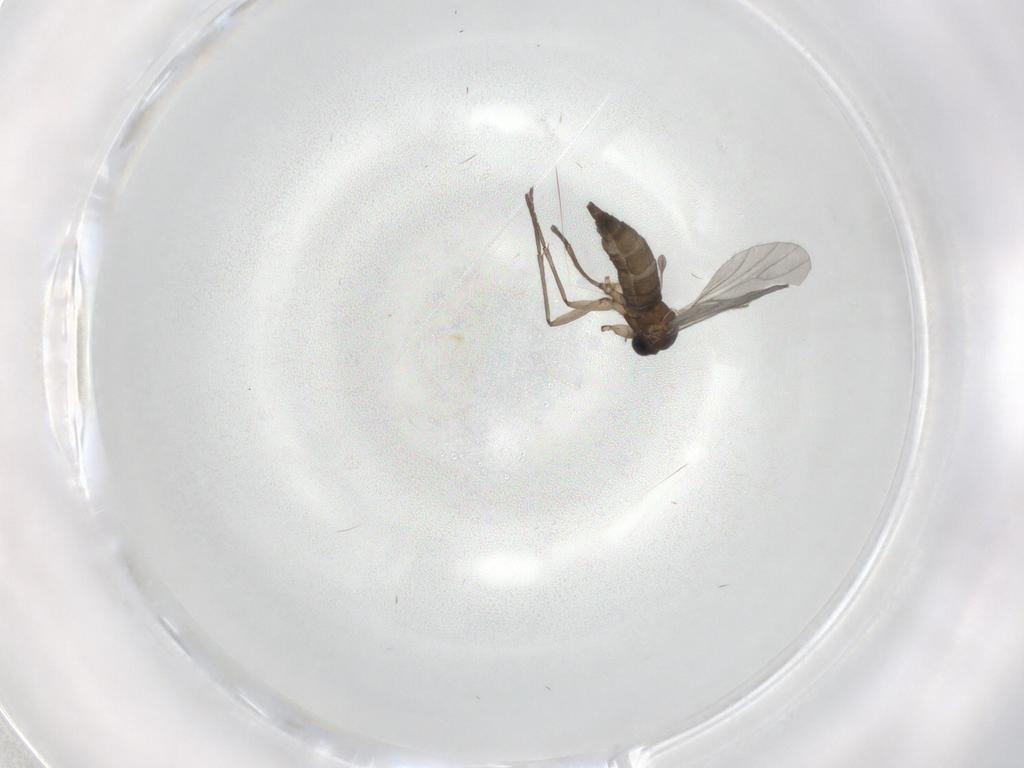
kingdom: Animalia
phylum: Arthropoda
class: Insecta
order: Diptera
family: Sciaridae
